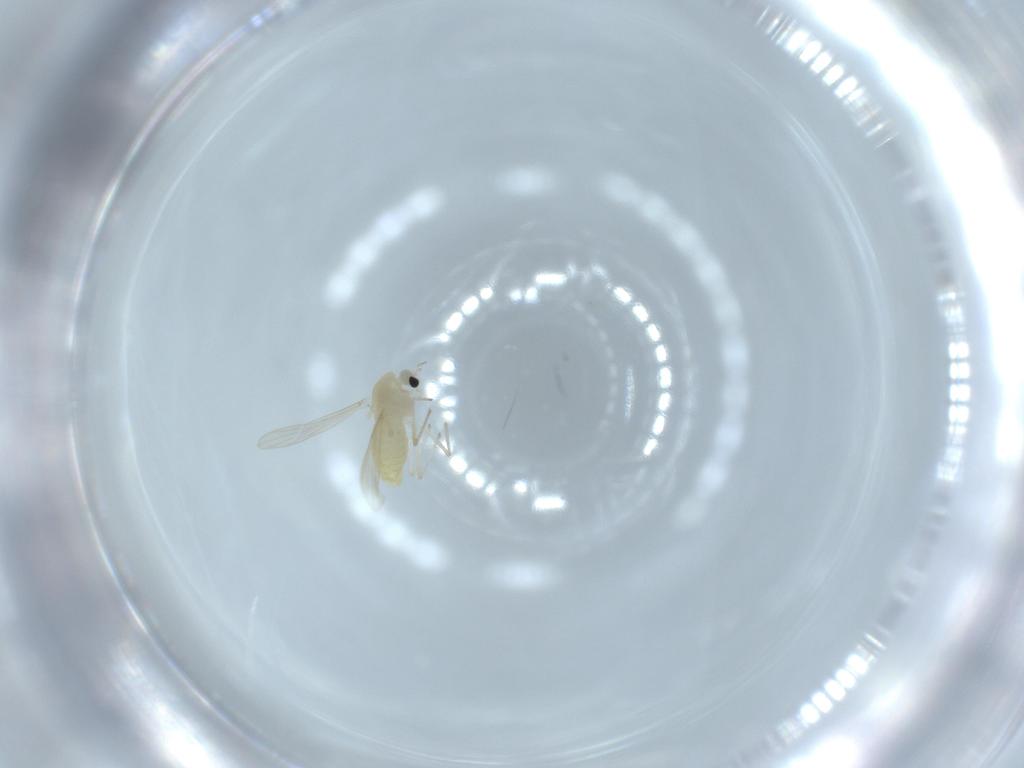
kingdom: Animalia
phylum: Arthropoda
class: Insecta
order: Diptera
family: Chironomidae
